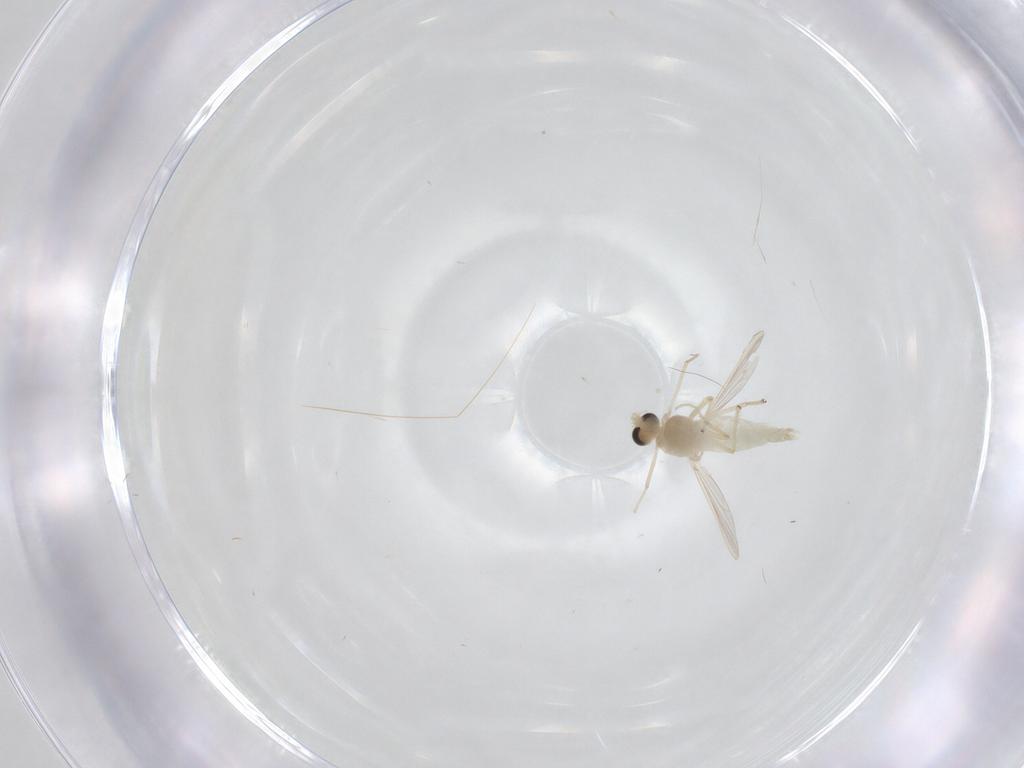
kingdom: Animalia
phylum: Arthropoda
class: Insecta
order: Diptera
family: Chironomidae
